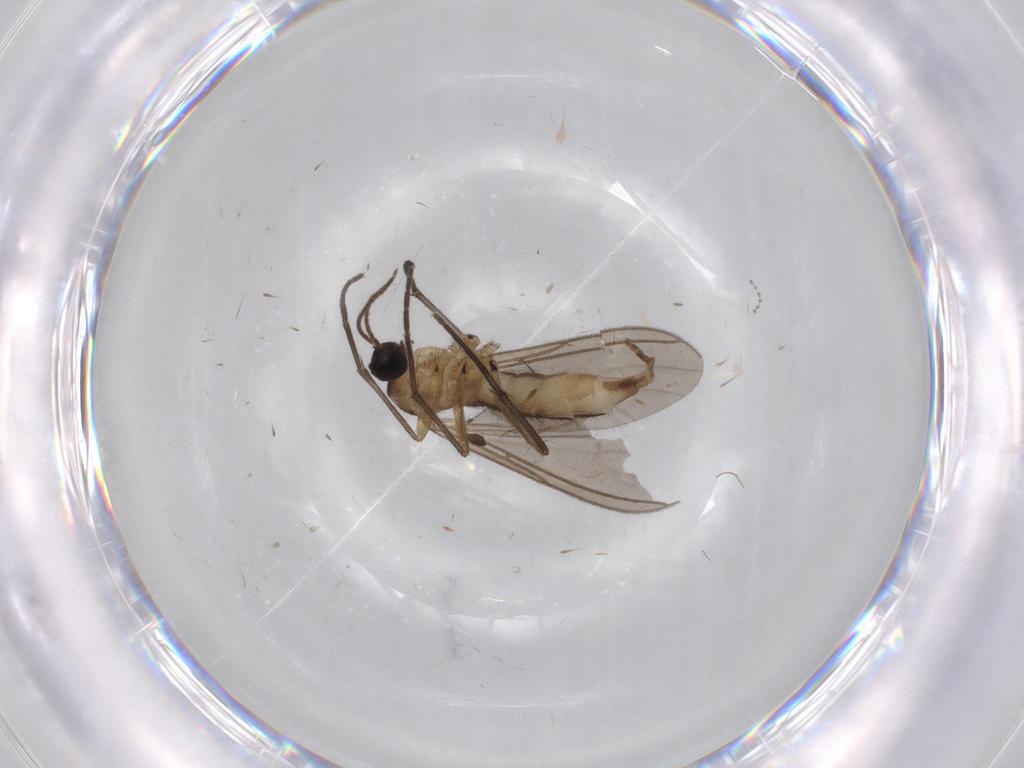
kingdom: Animalia
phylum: Arthropoda
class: Insecta
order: Diptera
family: Sciaridae
